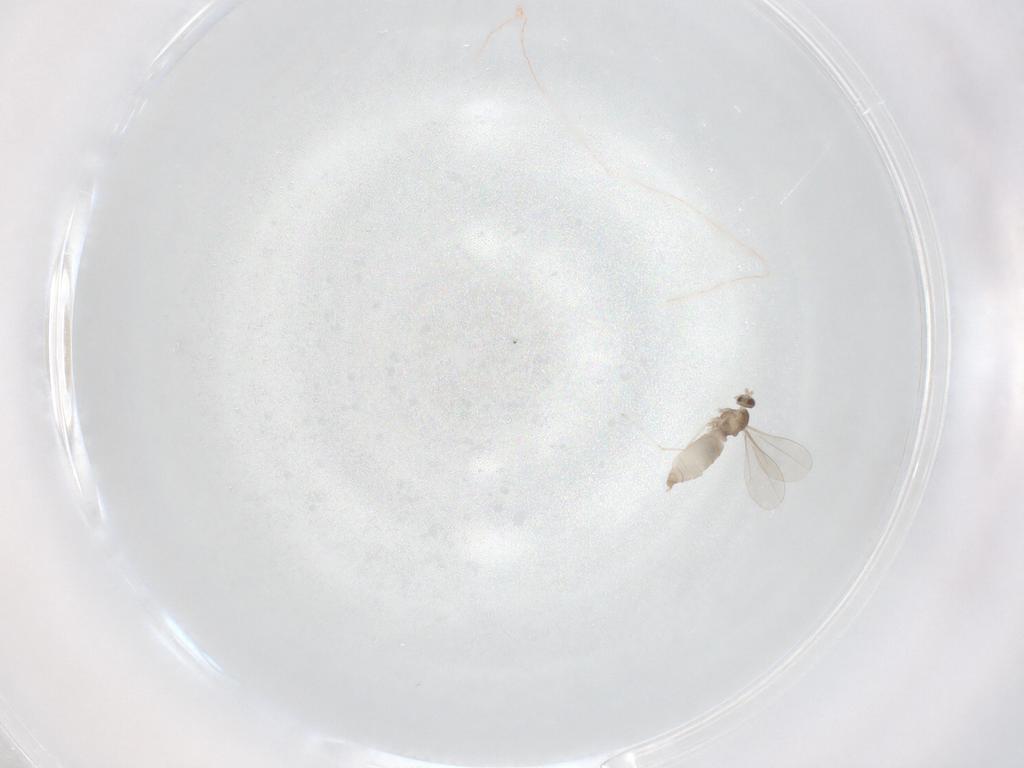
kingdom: Animalia
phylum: Arthropoda
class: Insecta
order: Diptera
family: Cecidomyiidae
